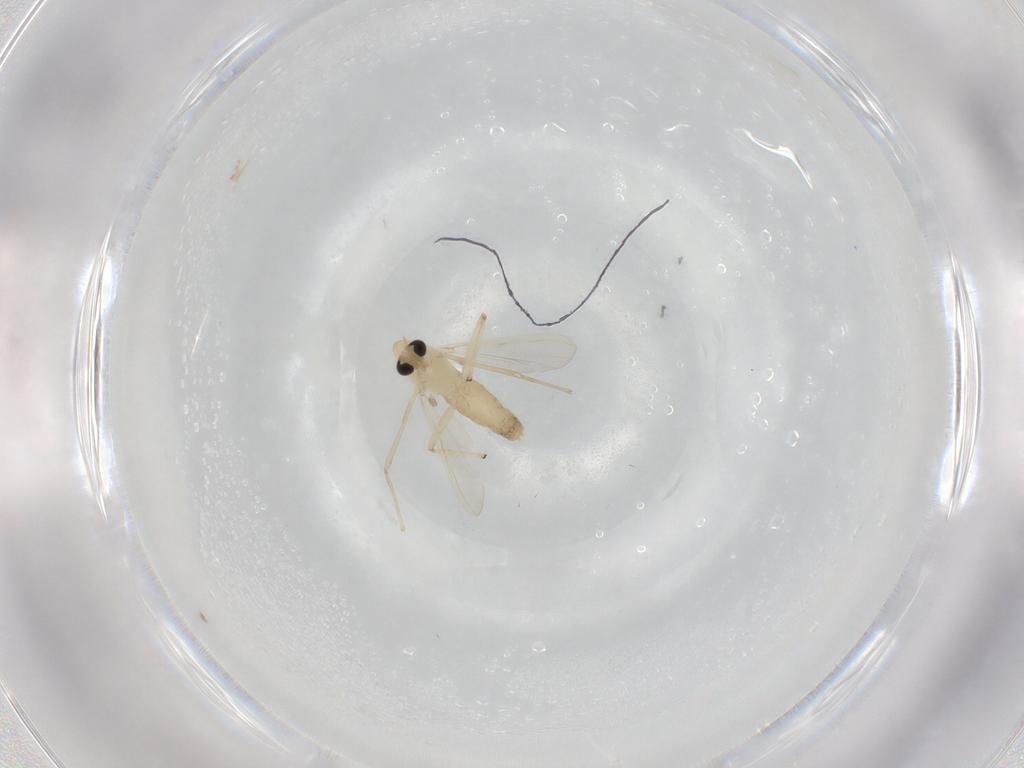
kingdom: Animalia
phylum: Arthropoda
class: Insecta
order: Diptera
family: Chironomidae
